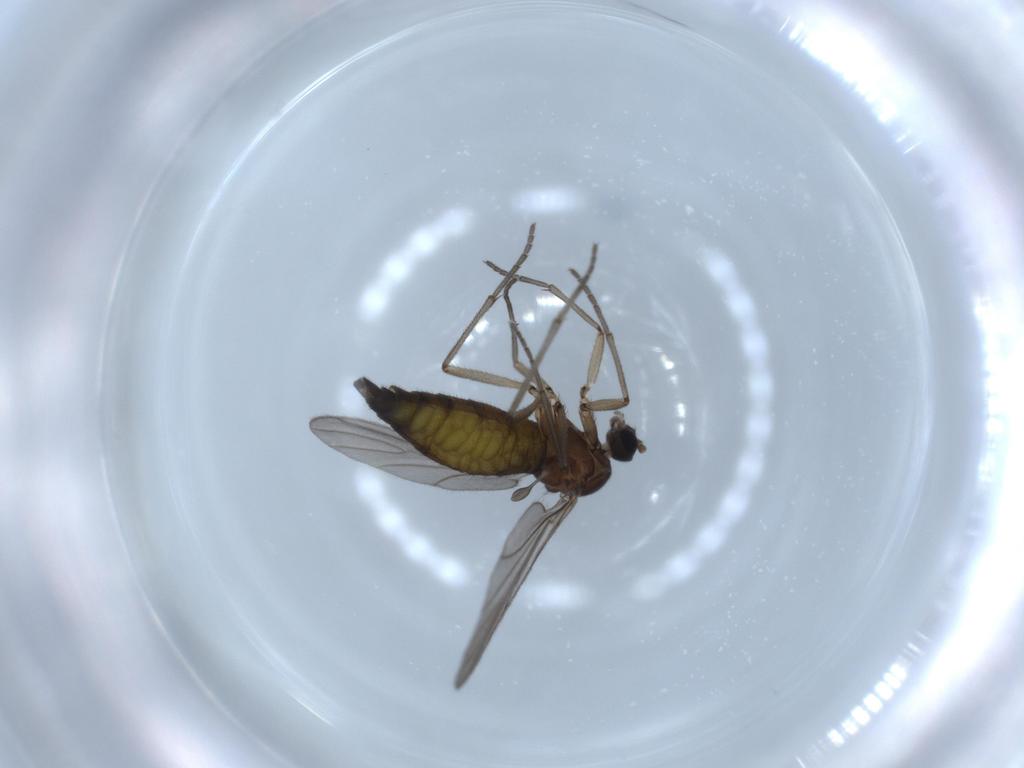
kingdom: Animalia
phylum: Arthropoda
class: Insecta
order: Diptera
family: Sciaridae
